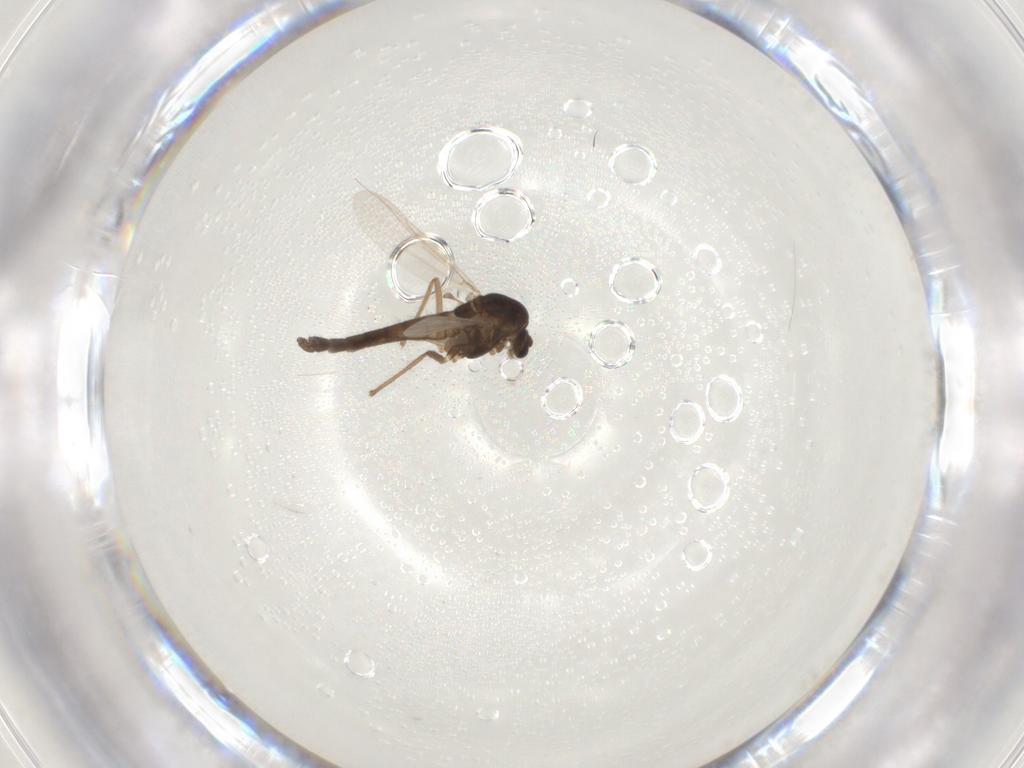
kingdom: Animalia
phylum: Arthropoda
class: Insecta
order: Diptera
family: Chironomidae
